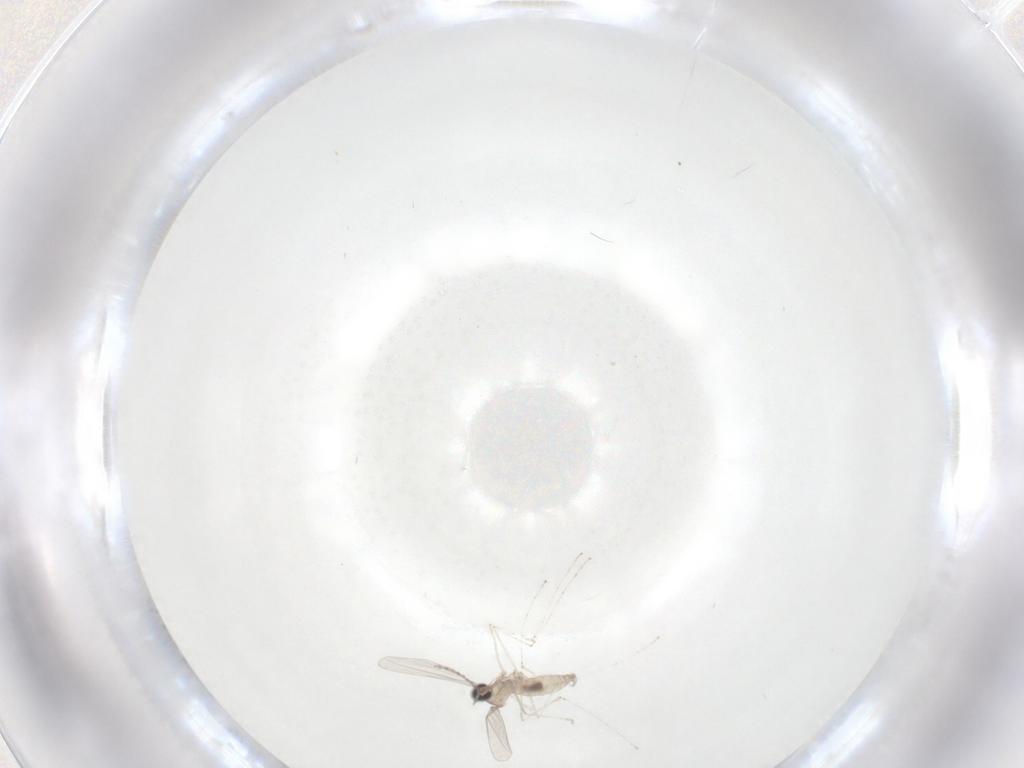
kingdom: Animalia
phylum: Arthropoda
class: Insecta
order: Diptera
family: Cecidomyiidae
